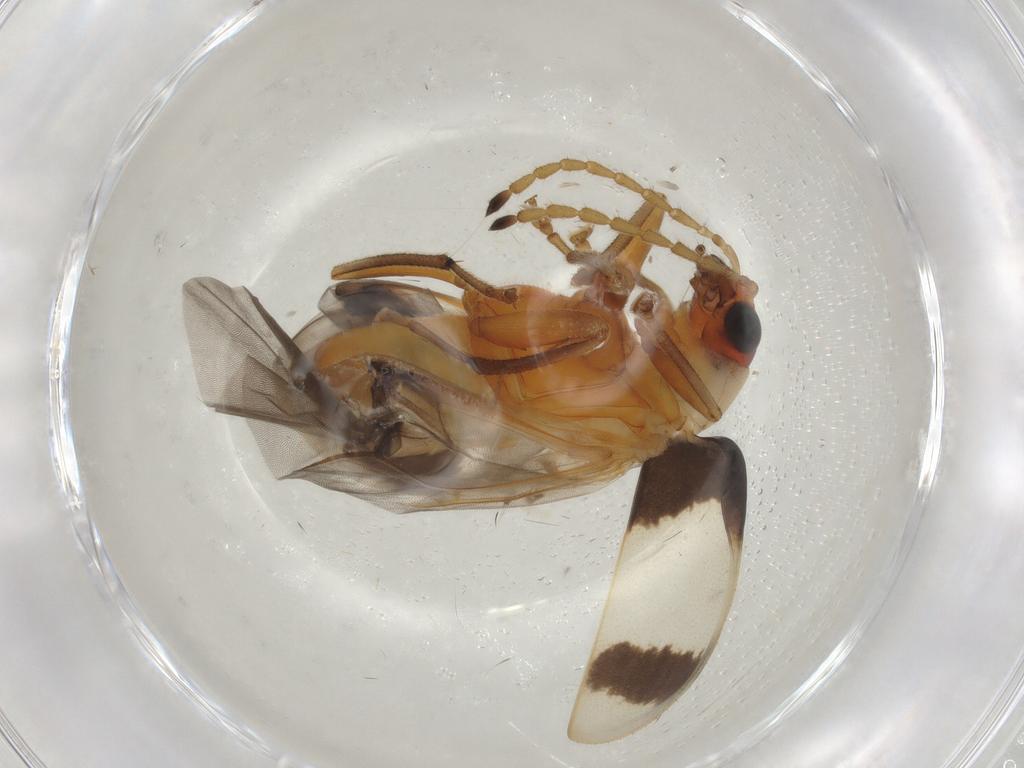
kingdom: Animalia
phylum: Arthropoda
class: Insecta
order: Coleoptera
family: Chrysomelidae
